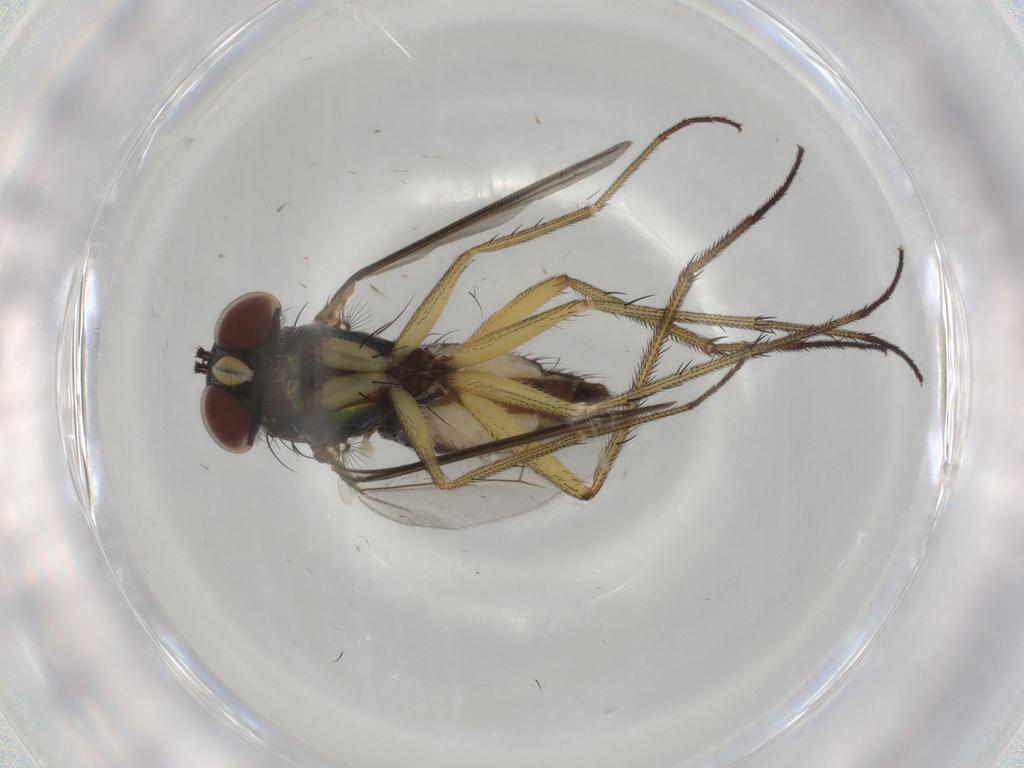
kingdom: Animalia
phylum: Arthropoda
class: Insecta
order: Diptera
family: Dolichopodidae
